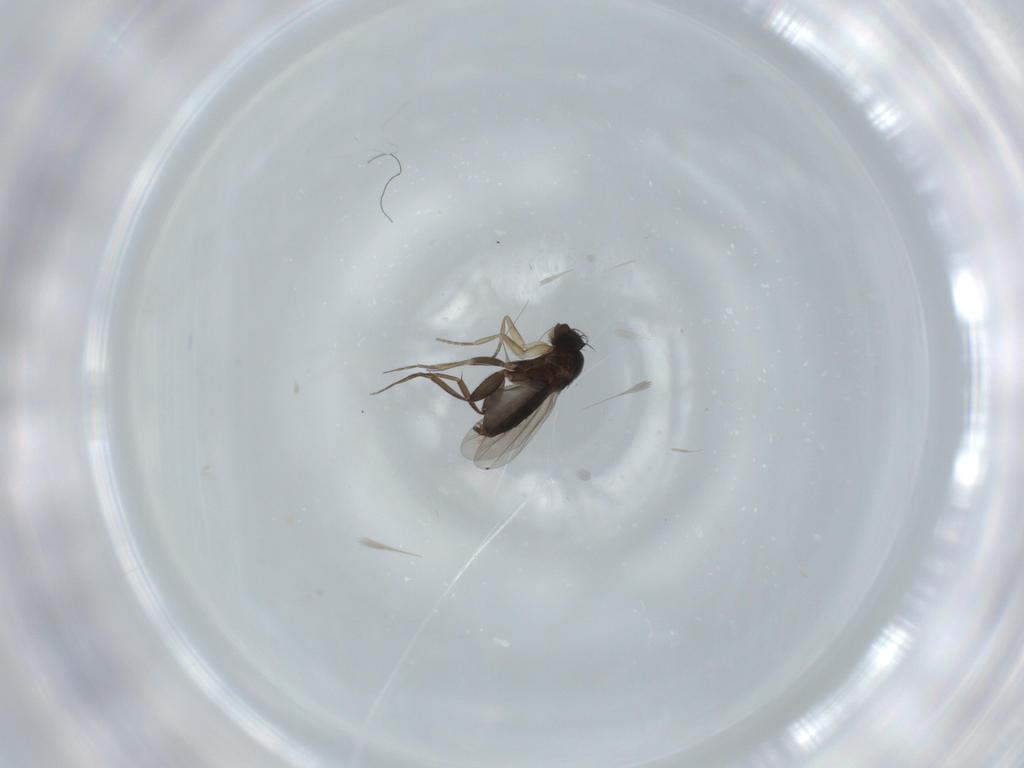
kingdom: Animalia
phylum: Arthropoda
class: Insecta
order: Diptera
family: Phoridae
